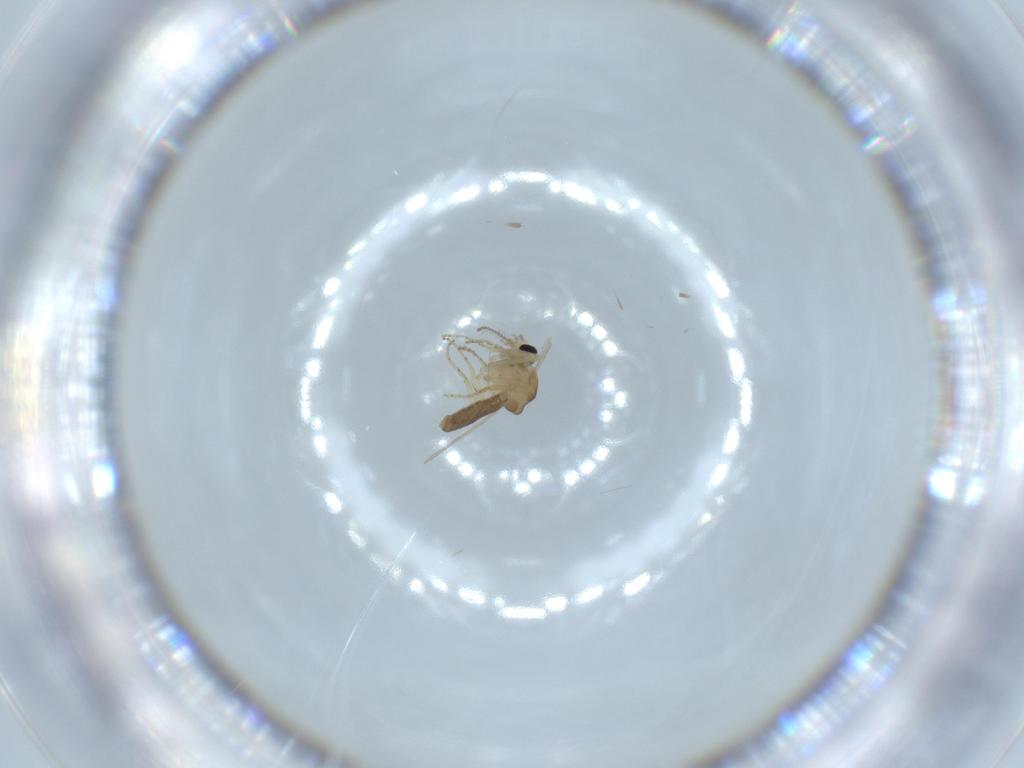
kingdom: Animalia
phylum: Arthropoda
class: Insecta
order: Diptera
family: Ceratopogonidae
